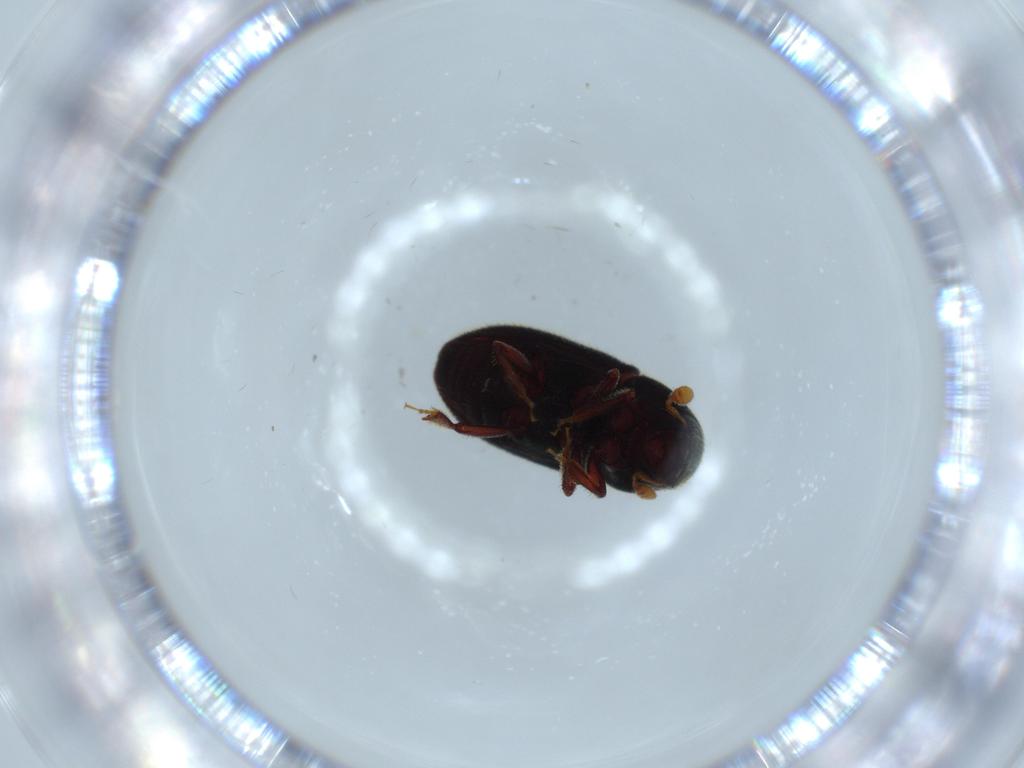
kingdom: Animalia
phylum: Arthropoda
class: Insecta
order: Coleoptera
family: Curculionidae
